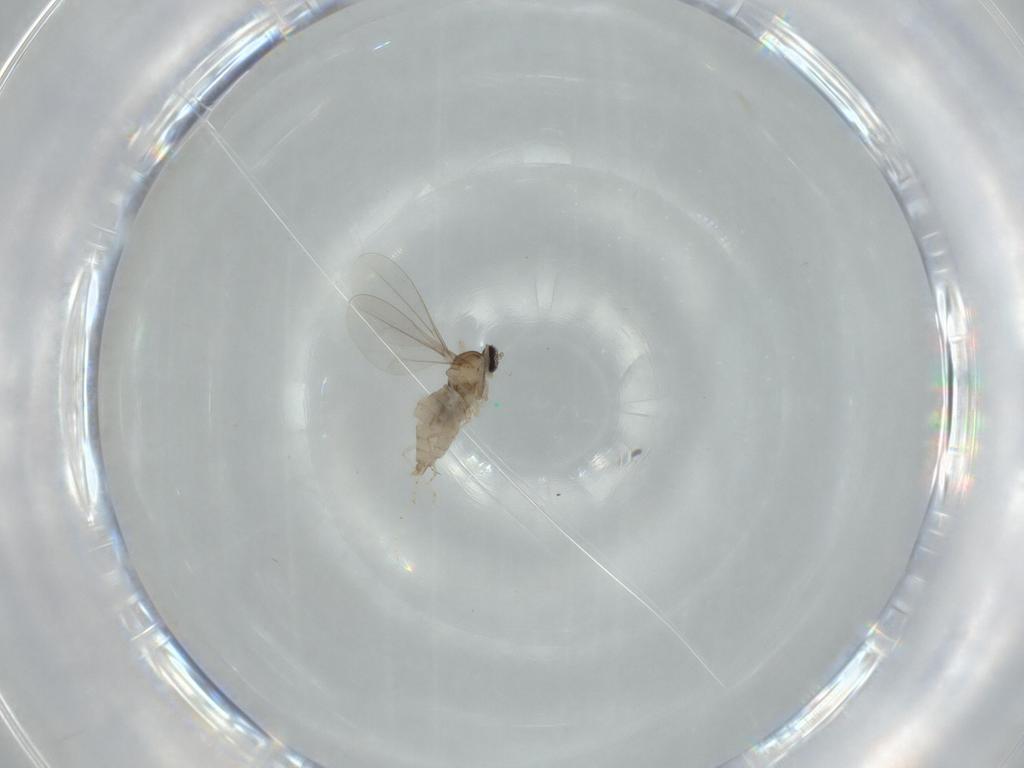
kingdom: Animalia
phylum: Arthropoda
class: Insecta
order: Diptera
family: Cecidomyiidae
